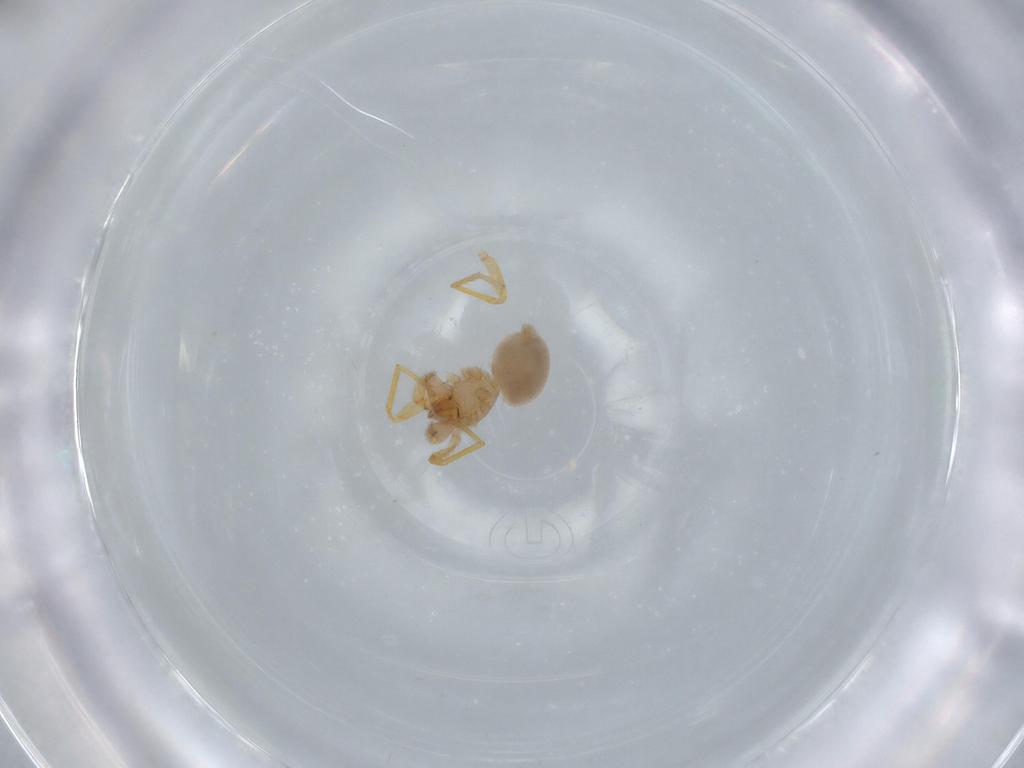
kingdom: Animalia
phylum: Arthropoda
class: Arachnida
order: Araneae
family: Oonopidae
